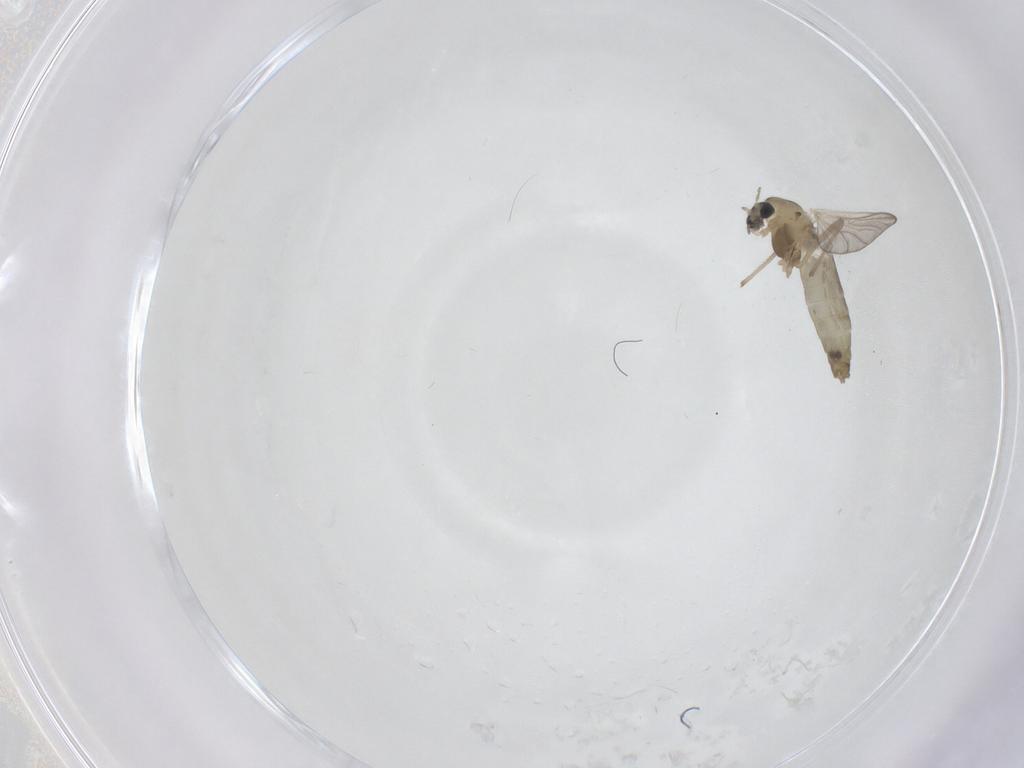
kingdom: Animalia
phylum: Arthropoda
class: Insecta
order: Diptera
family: Chironomidae
